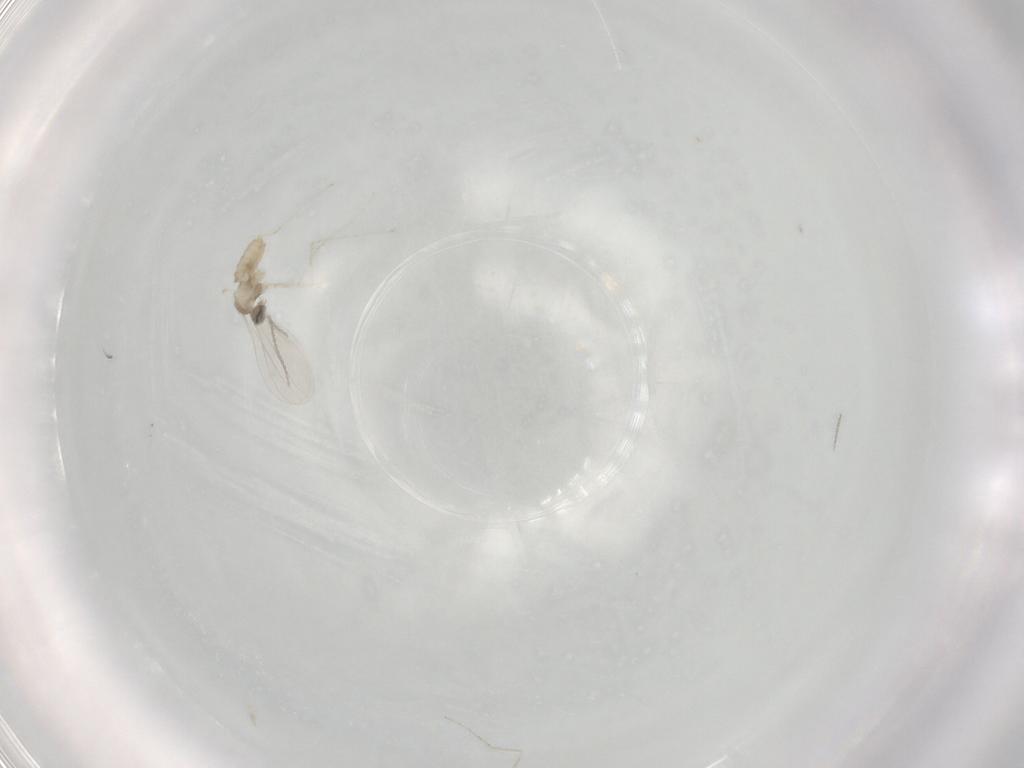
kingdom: Animalia
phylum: Arthropoda
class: Insecta
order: Diptera
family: Cecidomyiidae
